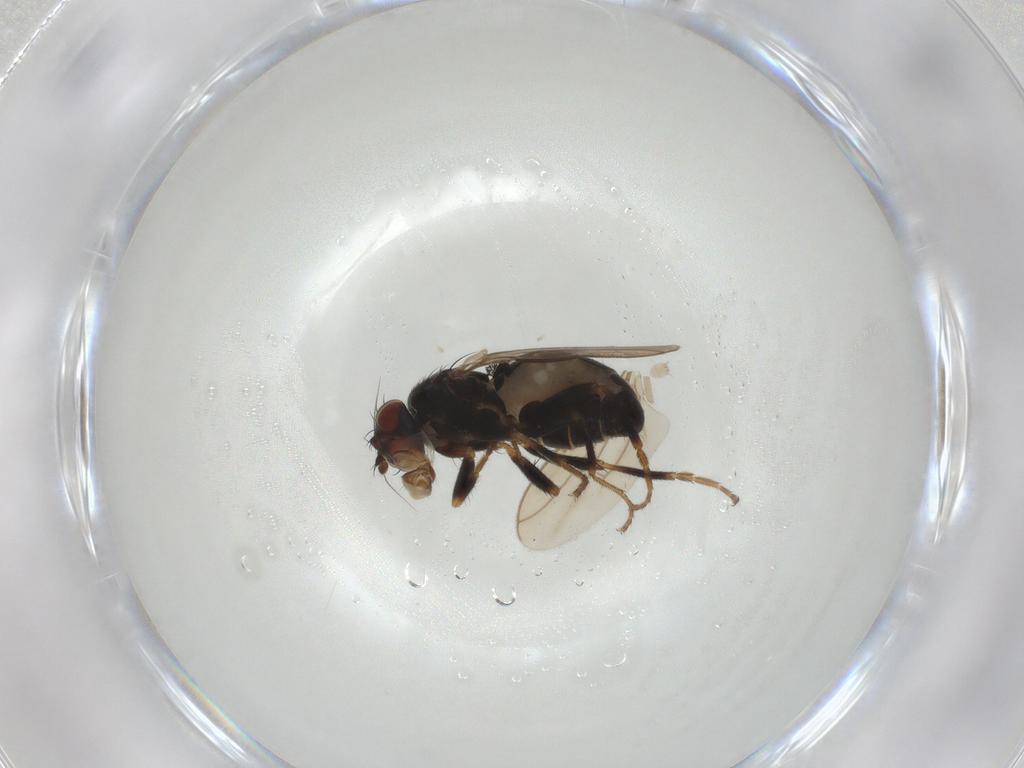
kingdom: Animalia
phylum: Arthropoda
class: Insecta
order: Diptera
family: Sphaeroceridae
